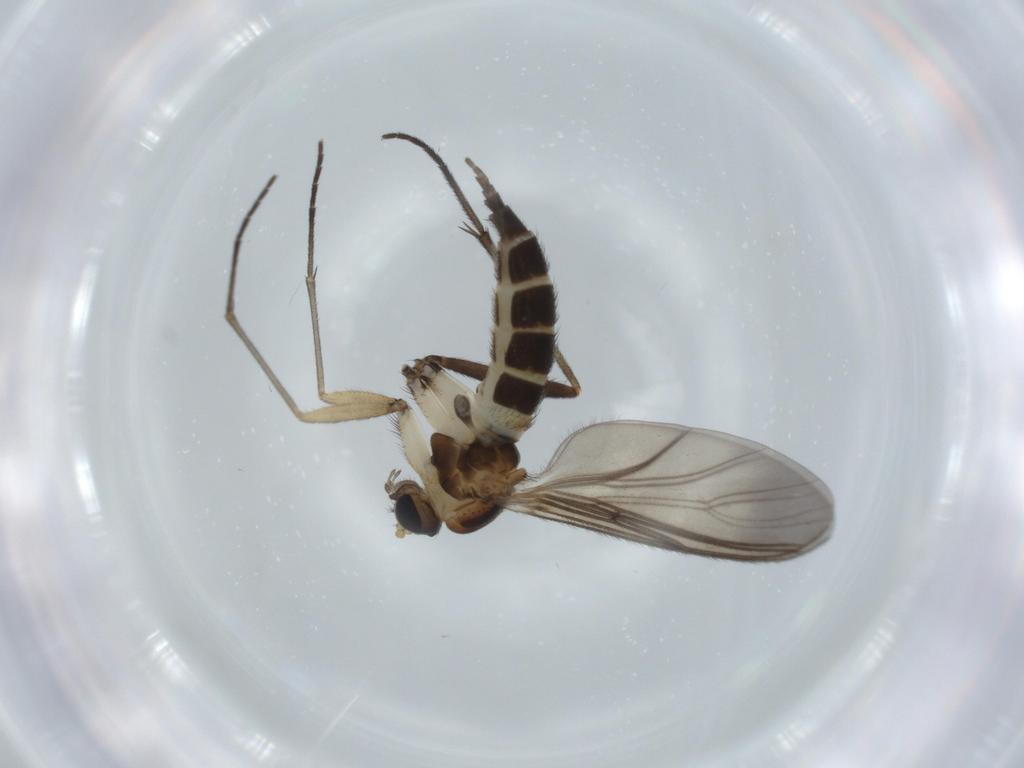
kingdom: Animalia
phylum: Arthropoda
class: Insecta
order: Diptera
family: Sciaridae
